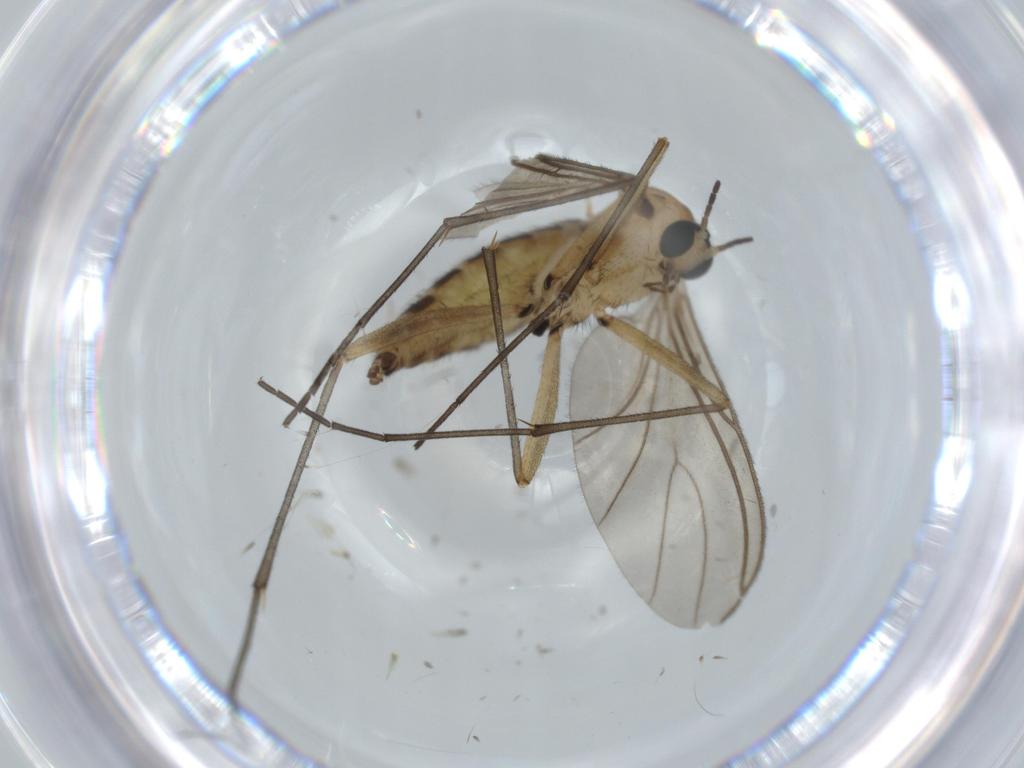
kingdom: Animalia
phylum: Arthropoda
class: Insecta
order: Diptera
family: Sciaridae
